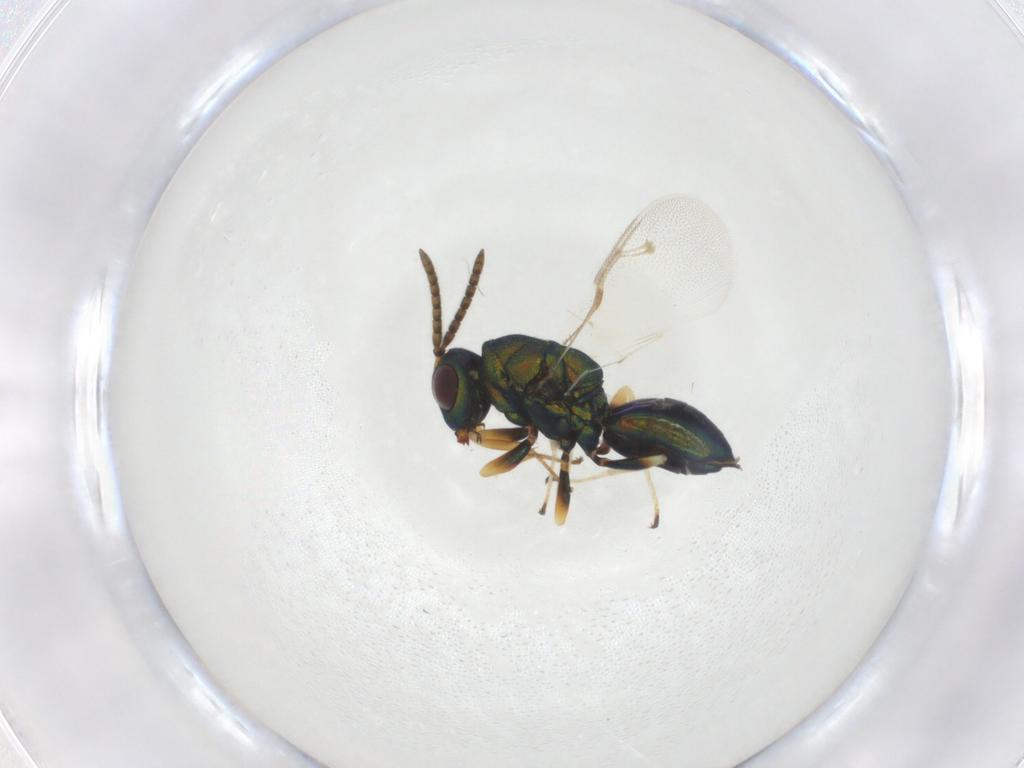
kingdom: Animalia
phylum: Arthropoda
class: Insecta
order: Hymenoptera
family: Pteromalidae
